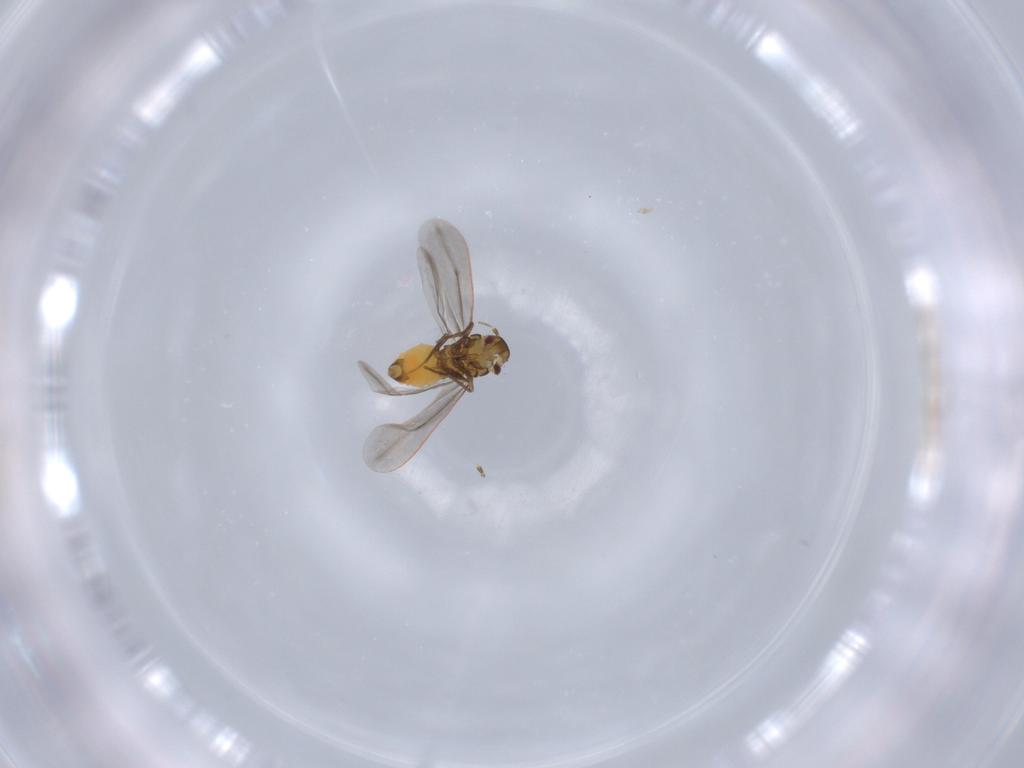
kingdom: Animalia
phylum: Arthropoda
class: Insecta
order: Hemiptera
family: Aleyrodidae
